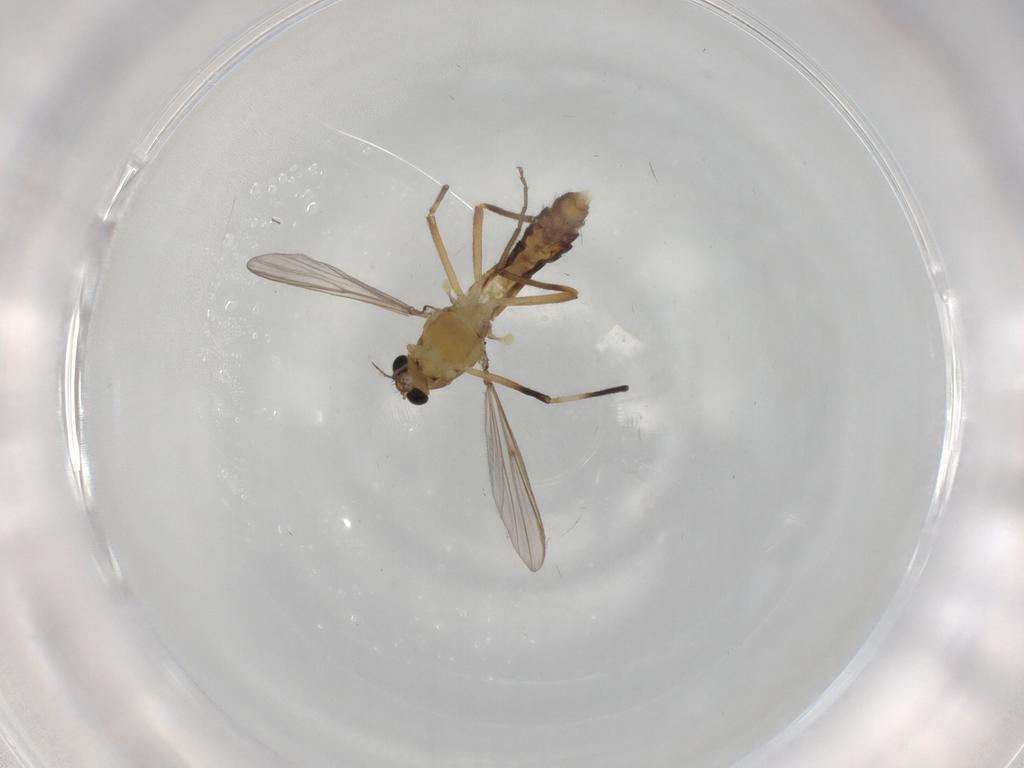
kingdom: Animalia
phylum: Arthropoda
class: Insecta
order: Diptera
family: Chironomidae
